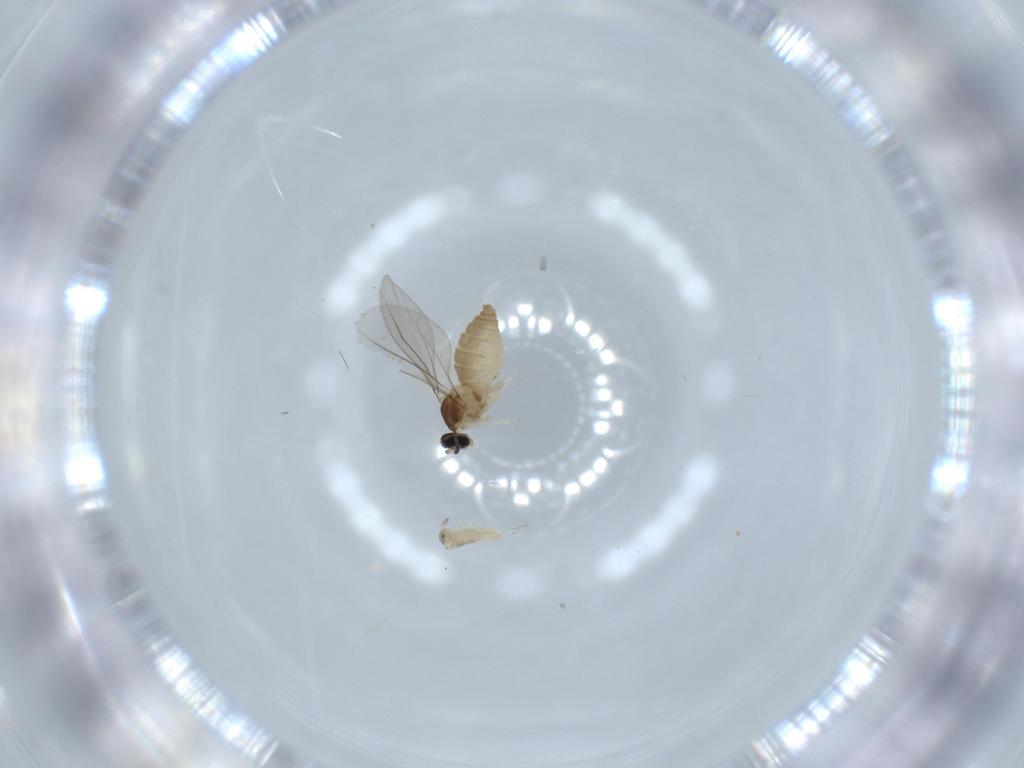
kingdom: Animalia
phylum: Arthropoda
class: Insecta
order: Diptera
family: Cecidomyiidae
